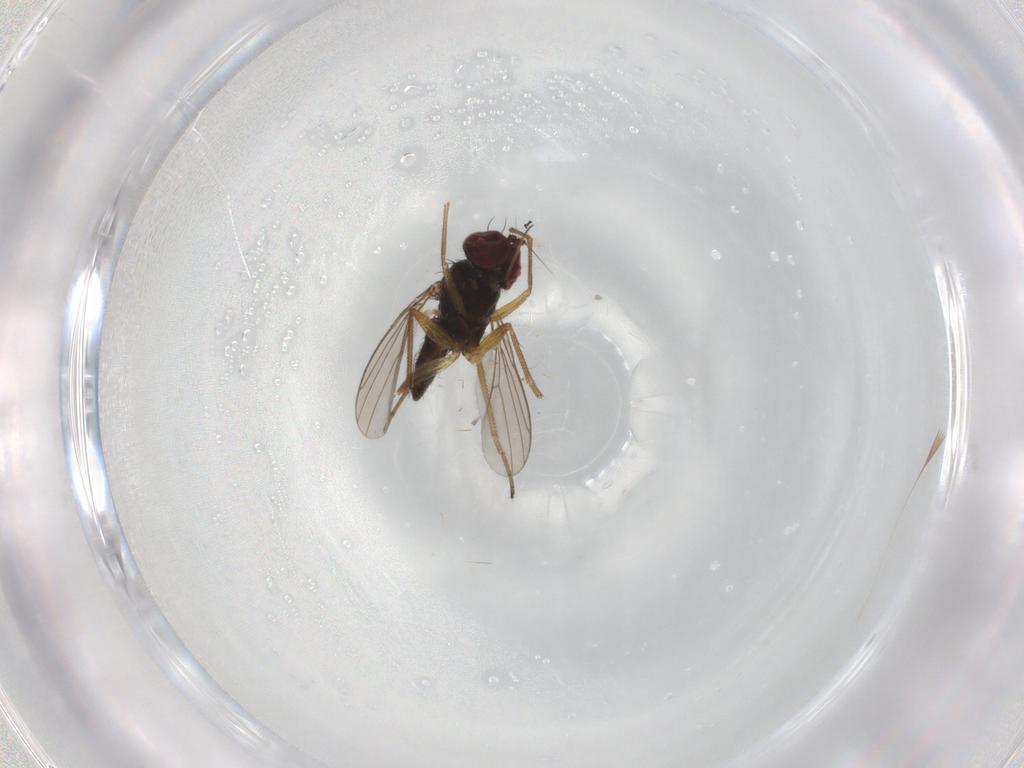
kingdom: Animalia
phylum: Arthropoda
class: Insecta
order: Diptera
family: Dolichopodidae
